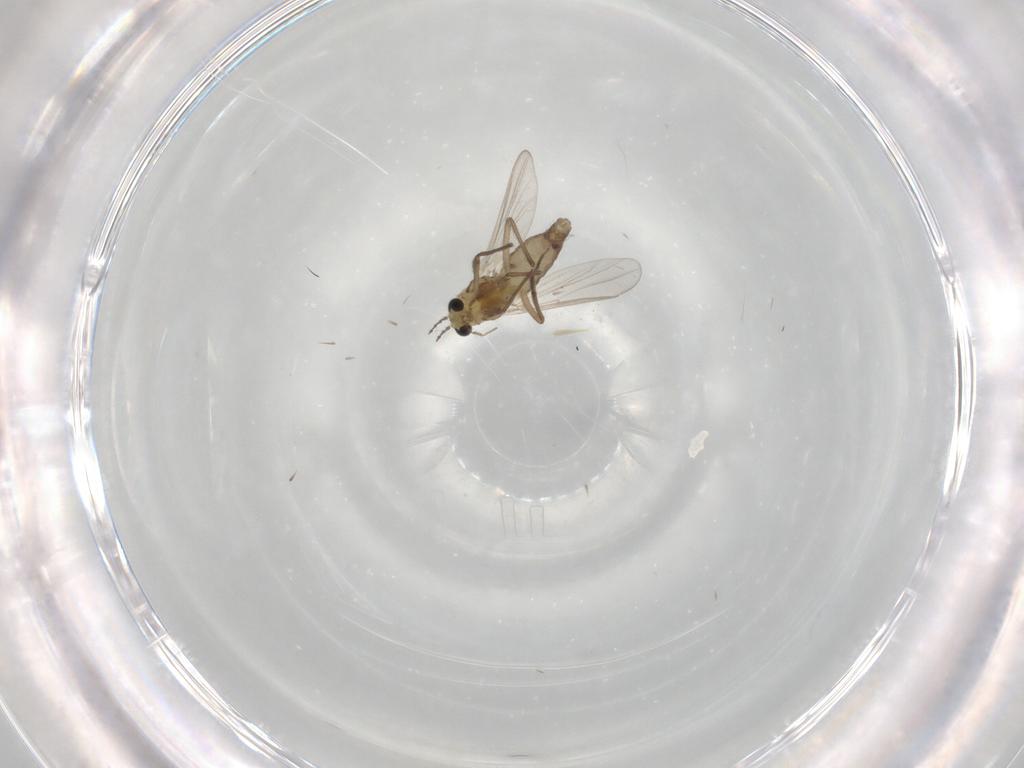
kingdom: Animalia
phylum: Arthropoda
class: Insecta
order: Diptera
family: Chironomidae
